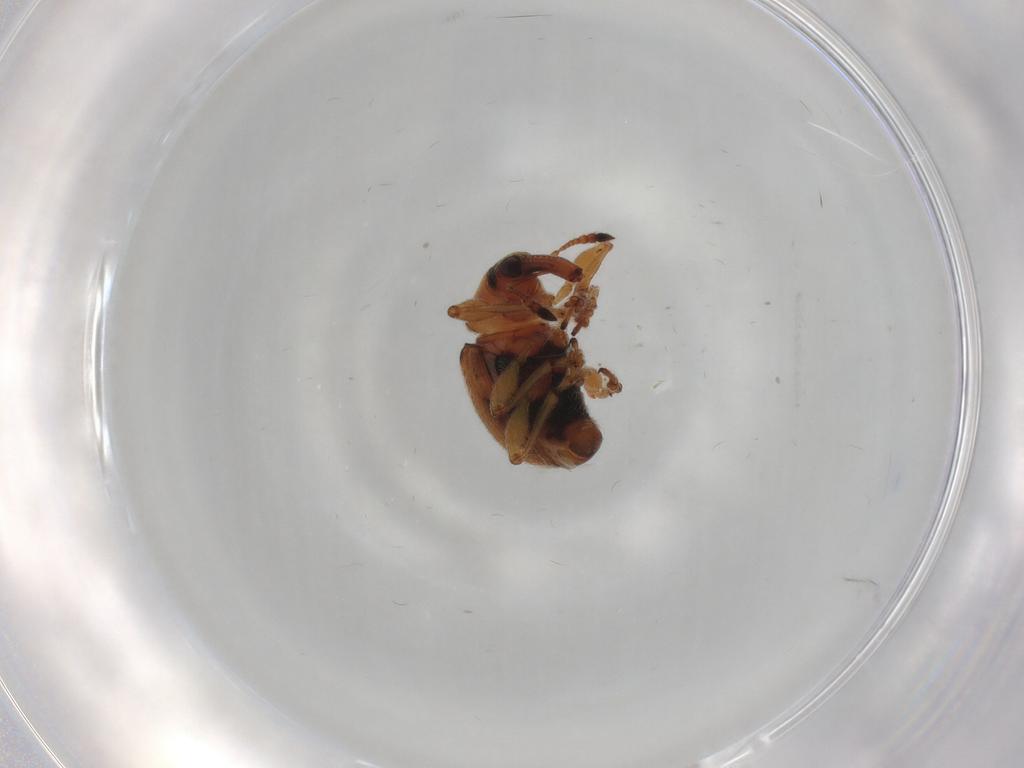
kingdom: Animalia
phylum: Arthropoda
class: Insecta
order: Coleoptera
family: Brentidae
